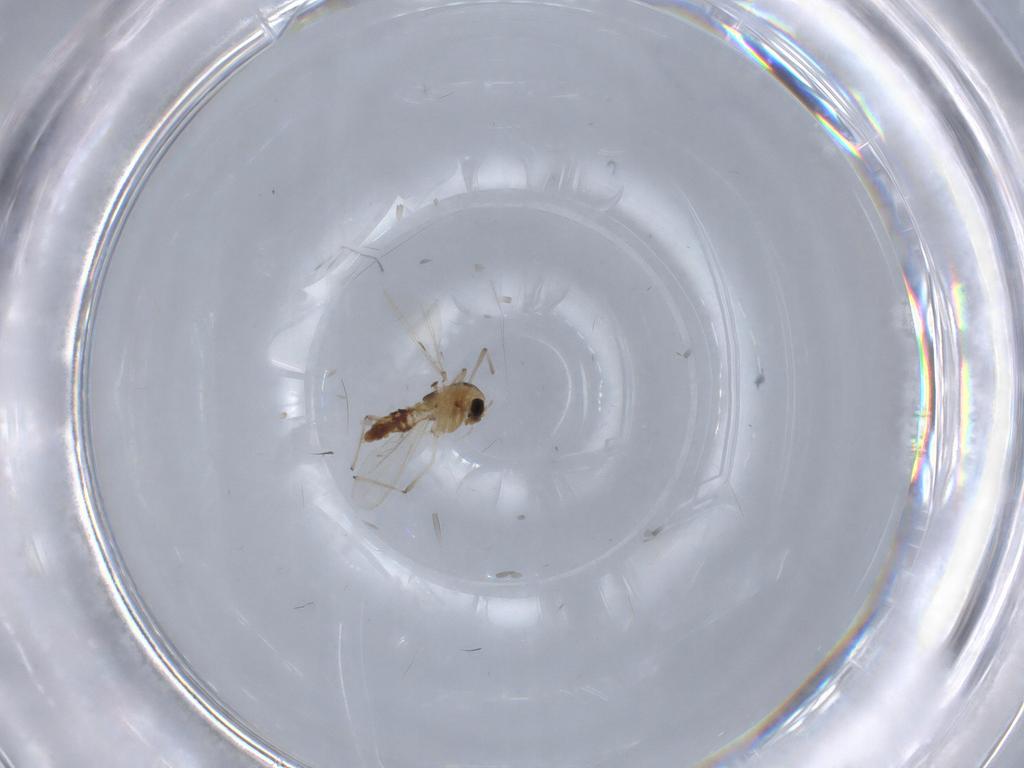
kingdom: Animalia
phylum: Arthropoda
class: Insecta
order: Diptera
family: Chironomidae
